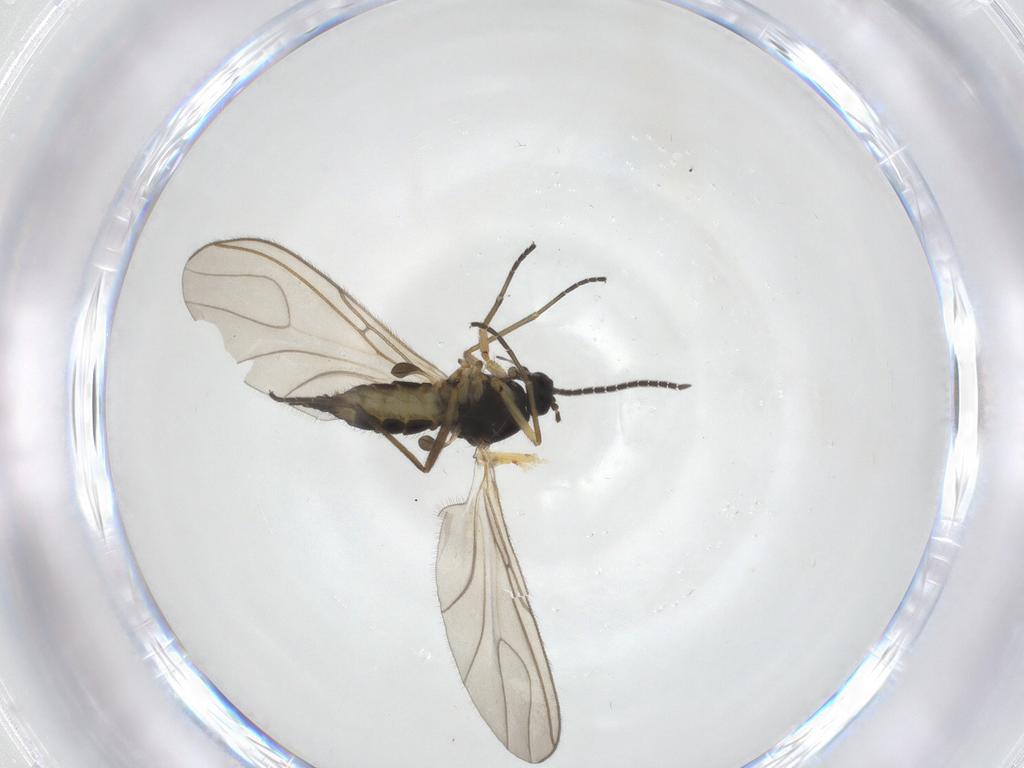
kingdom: Animalia
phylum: Arthropoda
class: Insecta
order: Diptera
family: Sciaridae
